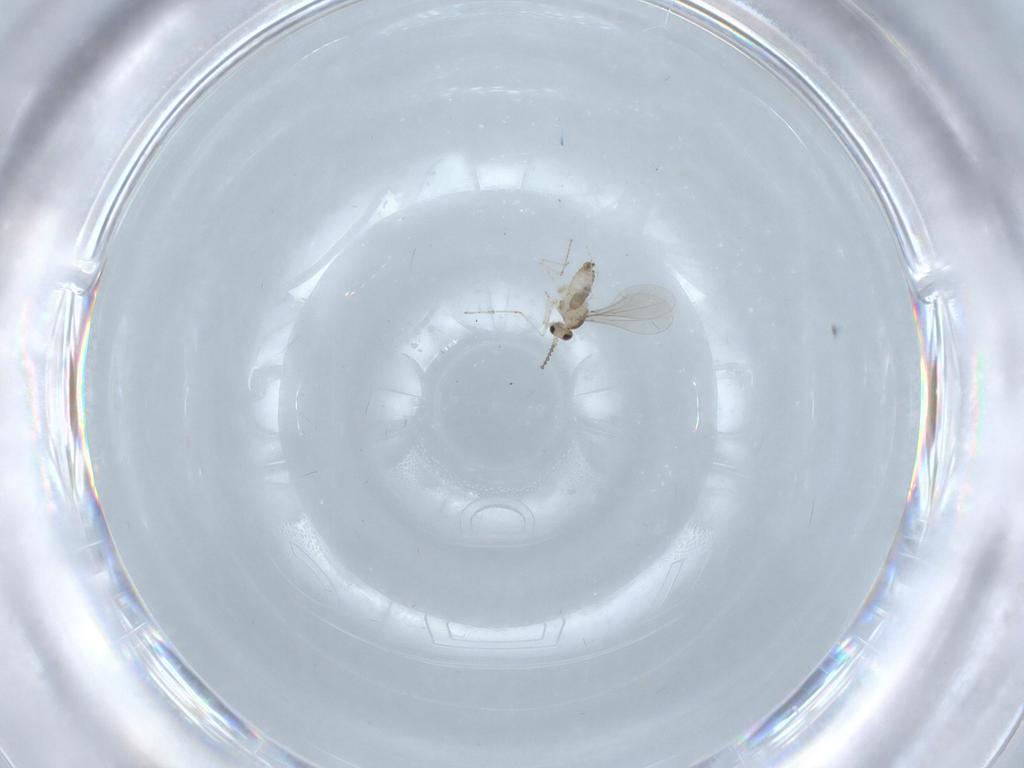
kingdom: Animalia
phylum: Arthropoda
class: Insecta
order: Diptera
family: Cecidomyiidae
